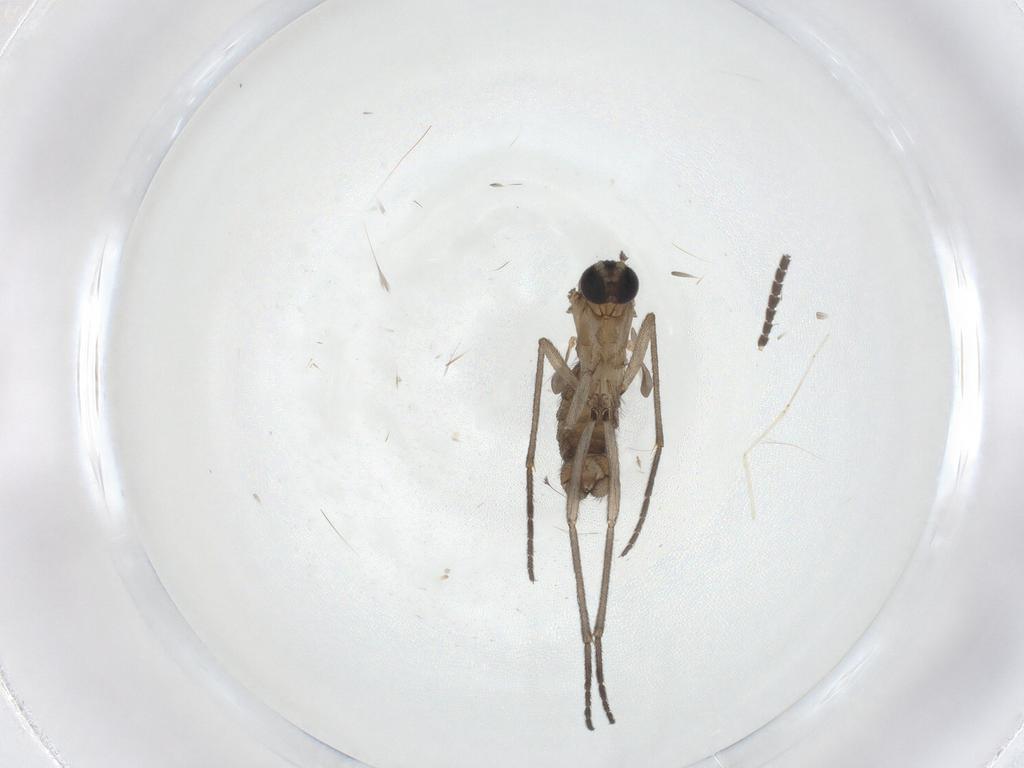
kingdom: Animalia
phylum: Arthropoda
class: Insecta
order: Diptera
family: Sciaridae
